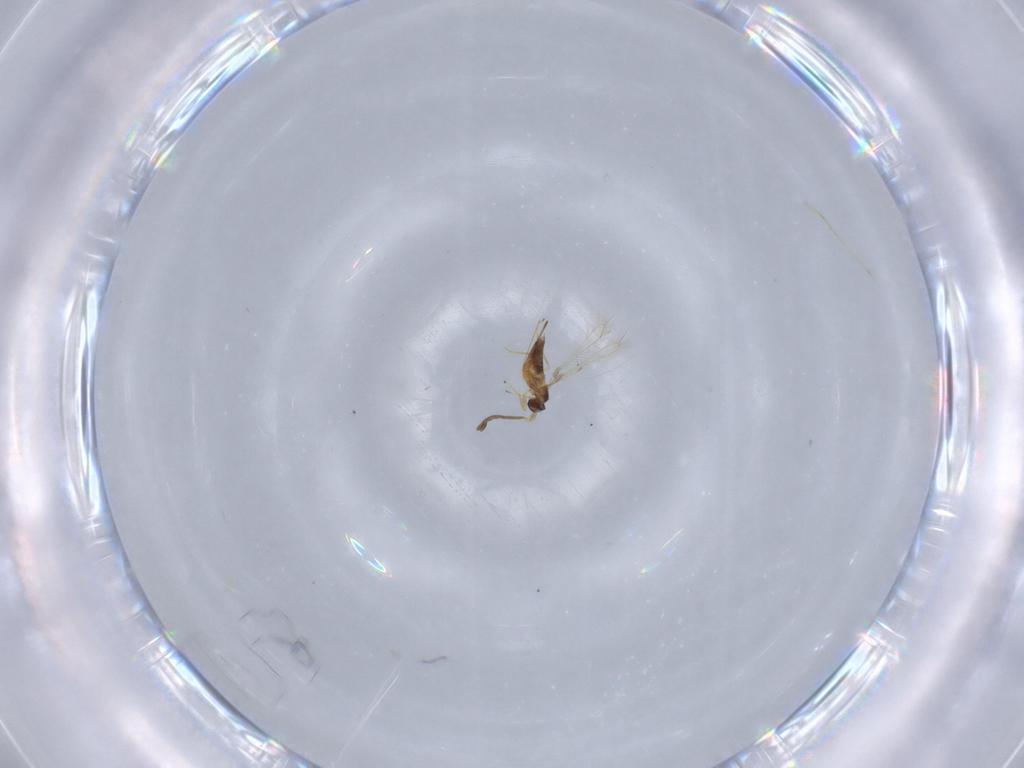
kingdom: Animalia
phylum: Arthropoda
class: Insecta
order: Hymenoptera
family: Mymaridae
